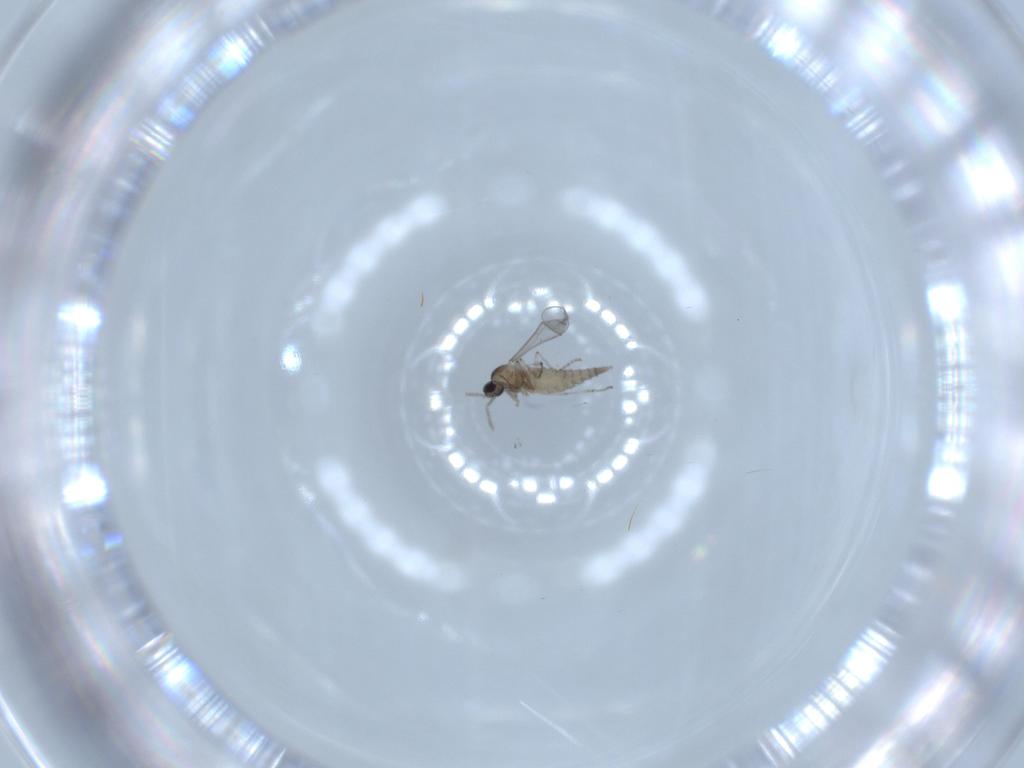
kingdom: Animalia
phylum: Arthropoda
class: Insecta
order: Diptera
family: Cecidomyiidae
